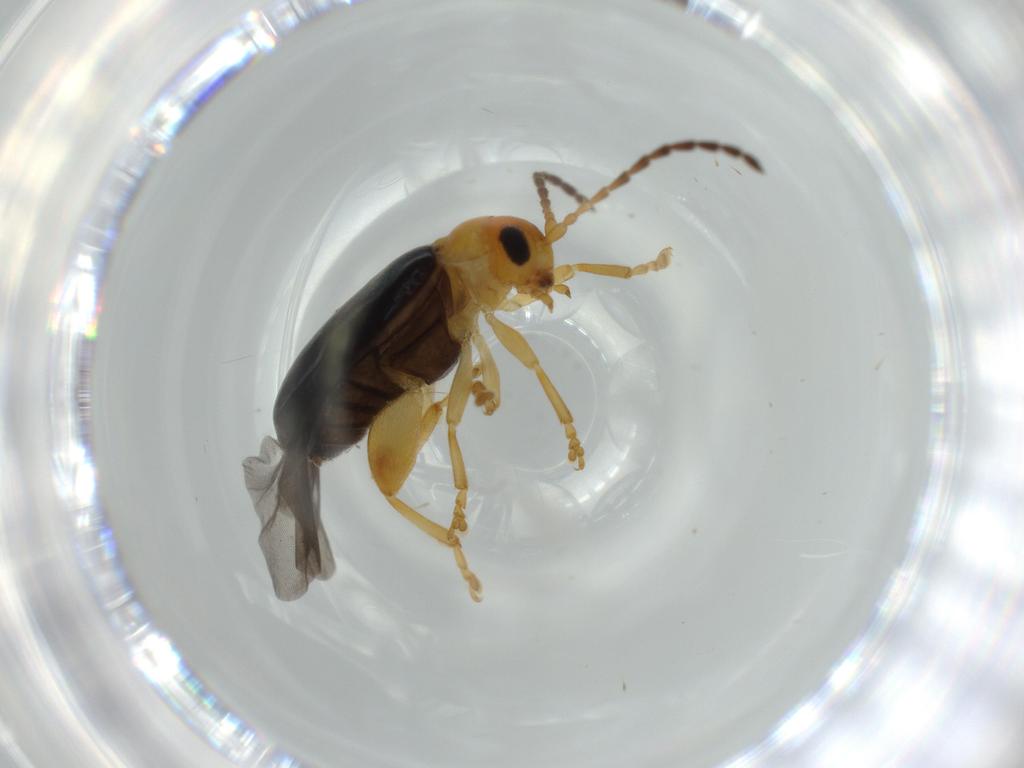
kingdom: Animalia
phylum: Arthropoda
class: Insecta
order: Coleoptera
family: Chrysomelidae
